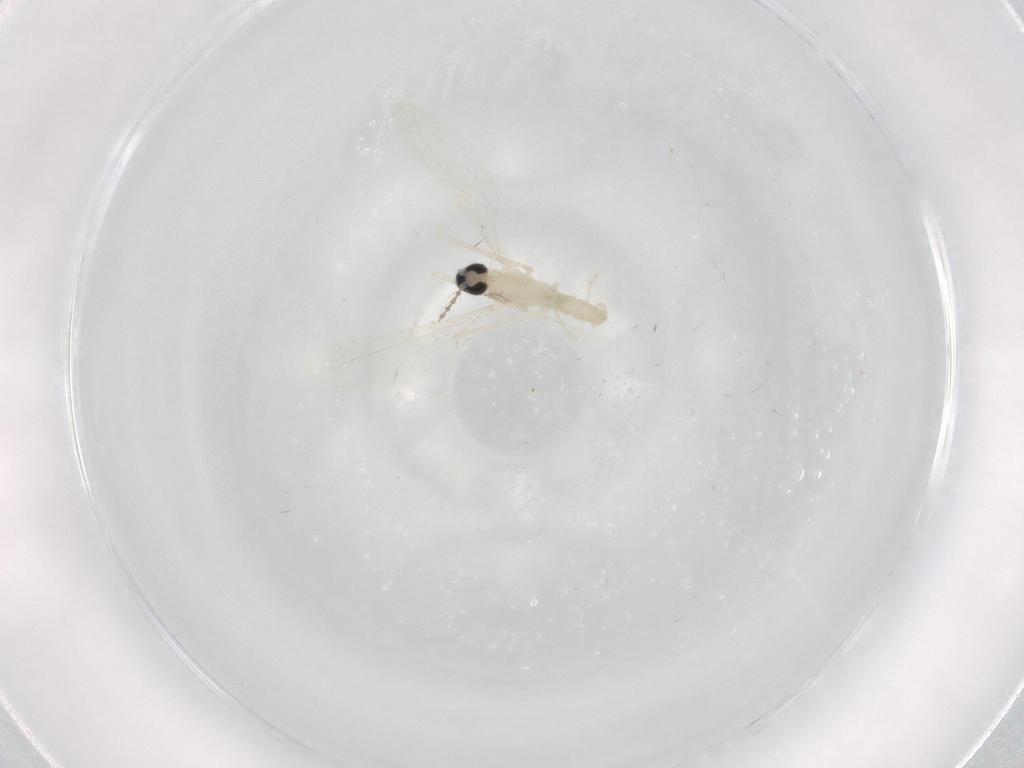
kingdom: Animalia
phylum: Arthropoda
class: Insecta
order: Diptera
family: Cecidomyiidae
